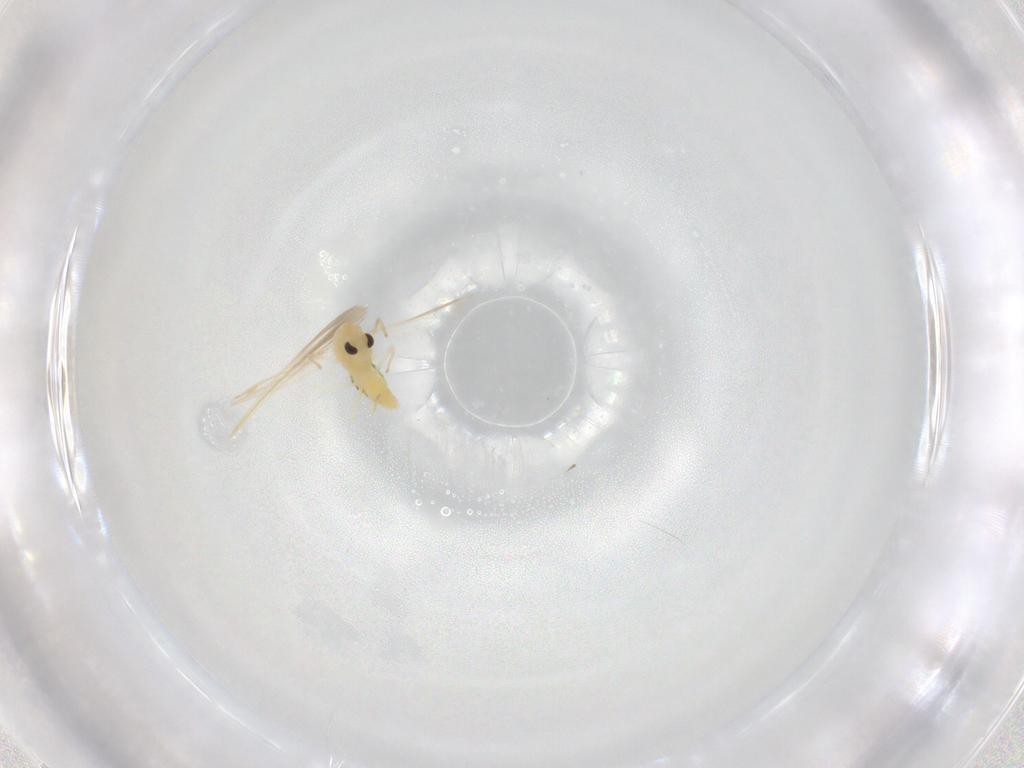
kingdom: Animalia
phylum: Arthropoda
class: Insecta
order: Diptera
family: Chironomidae
